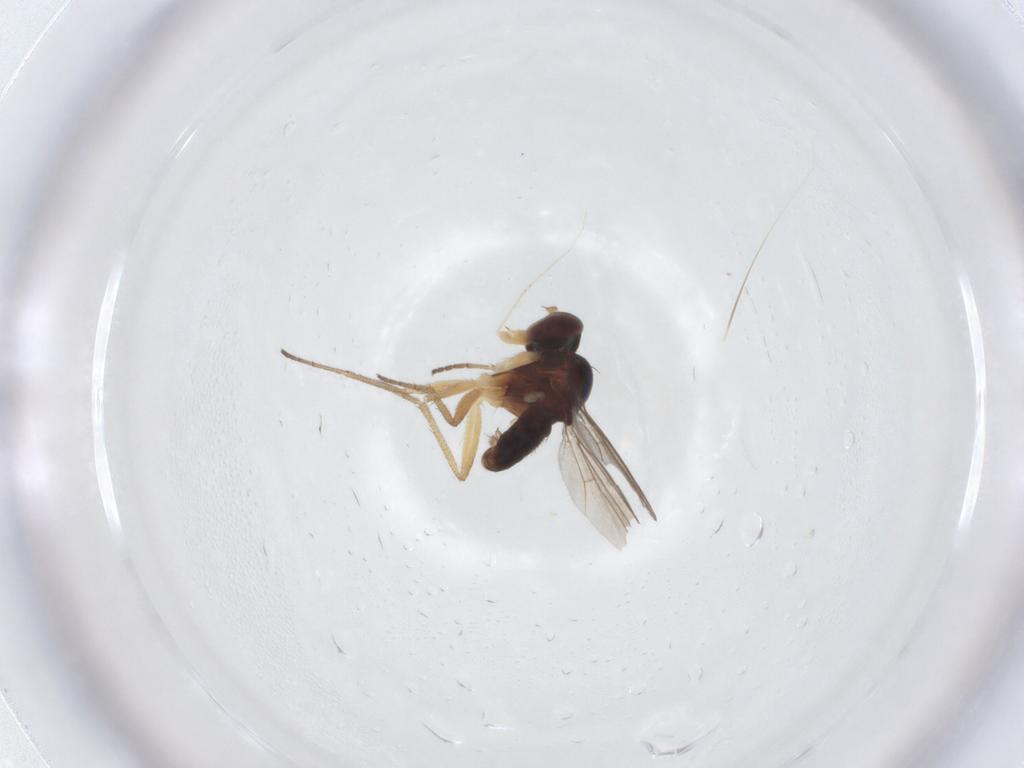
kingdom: Animalia
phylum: Arthropoda
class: Insecta
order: Diptera
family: Dolichopodidae
